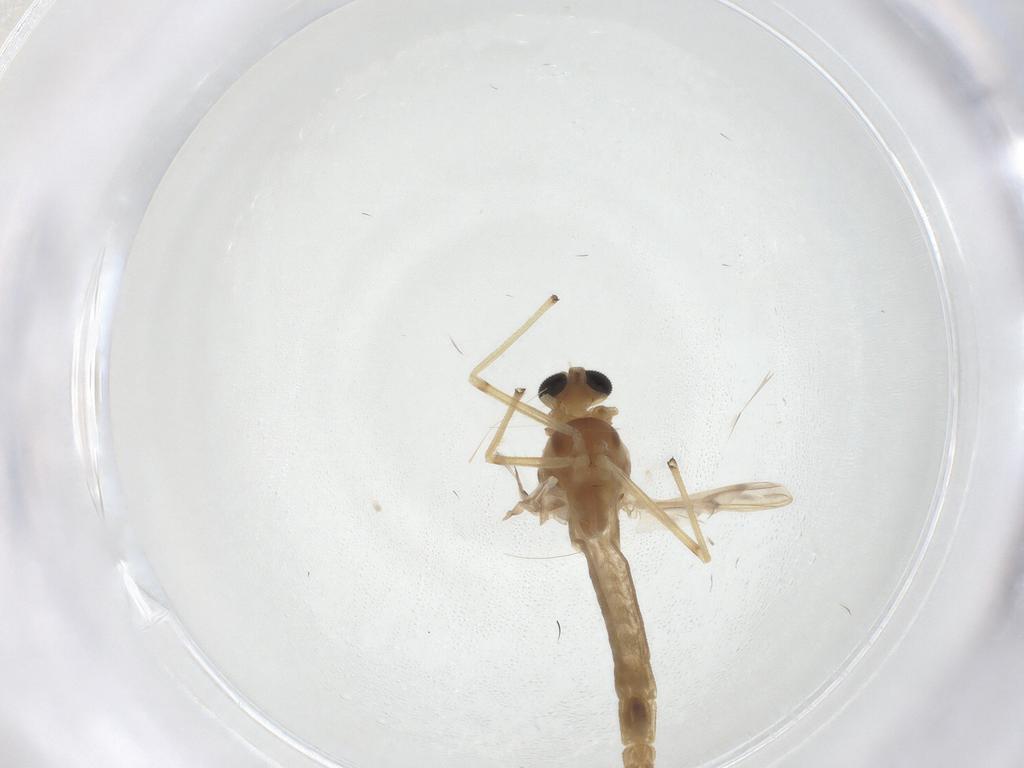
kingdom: Animalia
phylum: Arthropoda
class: Insecta
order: Diptera
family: Chironomidae
